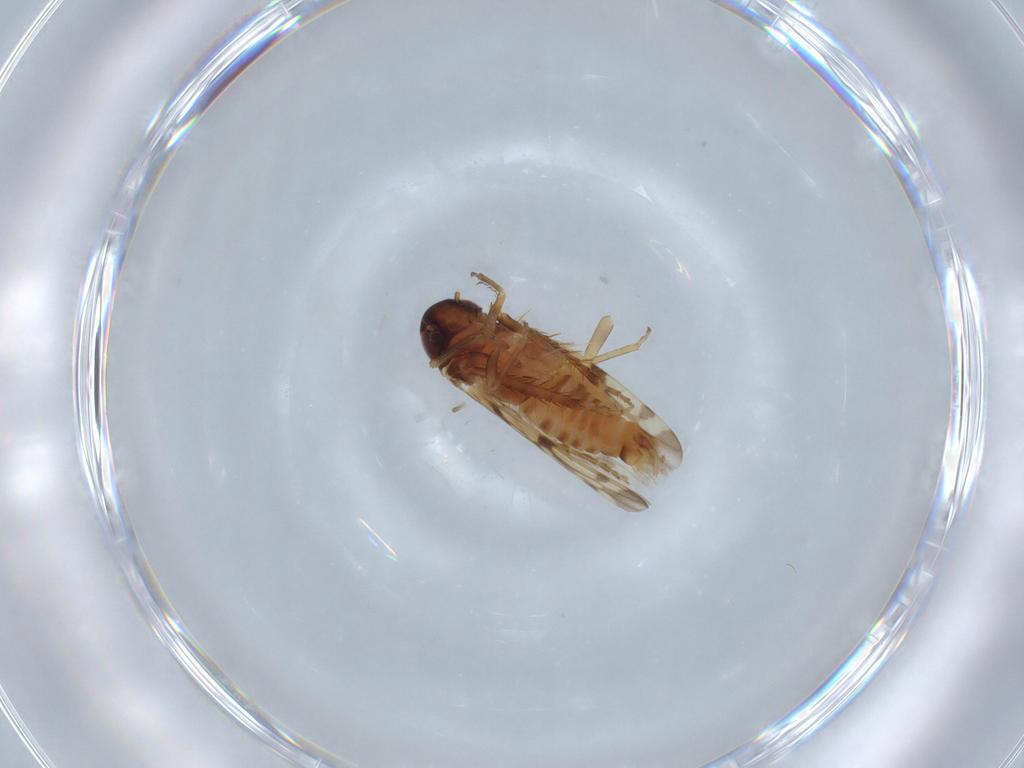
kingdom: Animalia
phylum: Arthropoda
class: Insecta
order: Hemiptera
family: Cicadellidae
